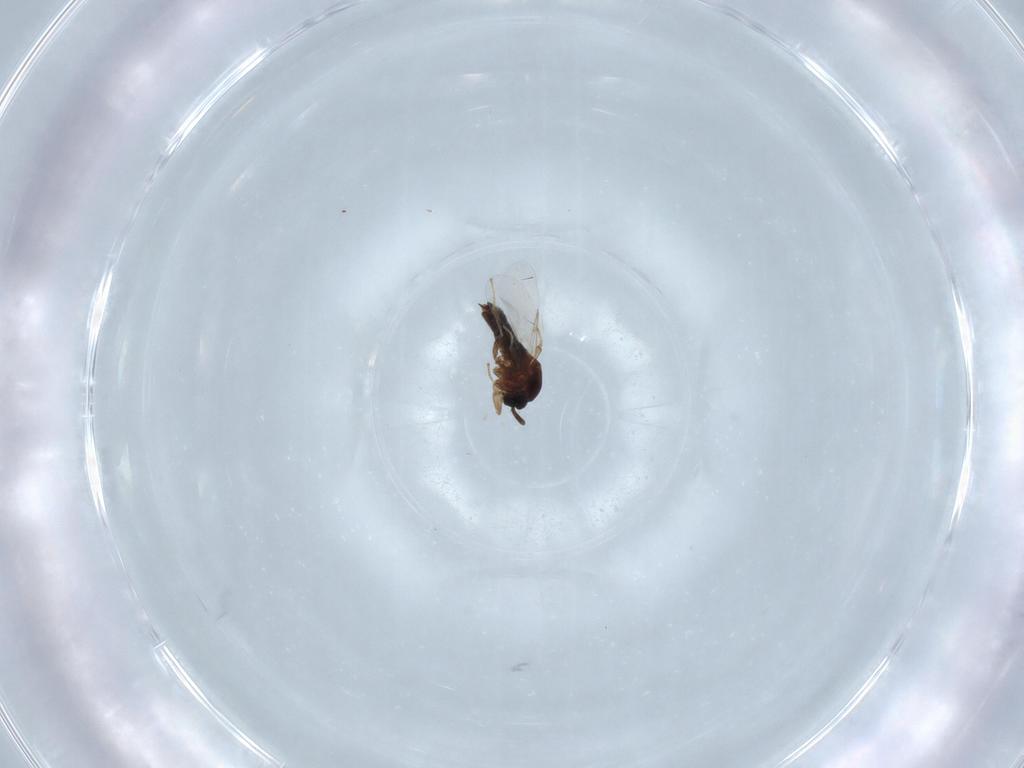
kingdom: Animalia
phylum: Arthropoda
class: Insecta
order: Diptera
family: Scatopsidae
